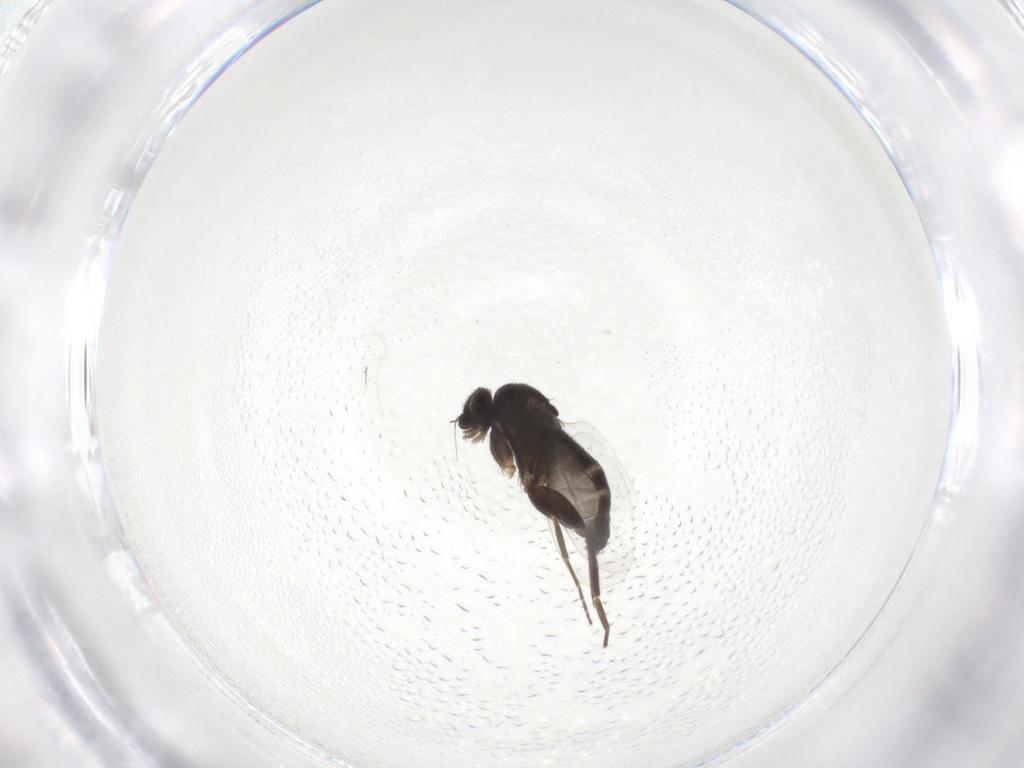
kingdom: Animalia
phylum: Arthropoda
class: Insecta
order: Diptera
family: Phoridae
